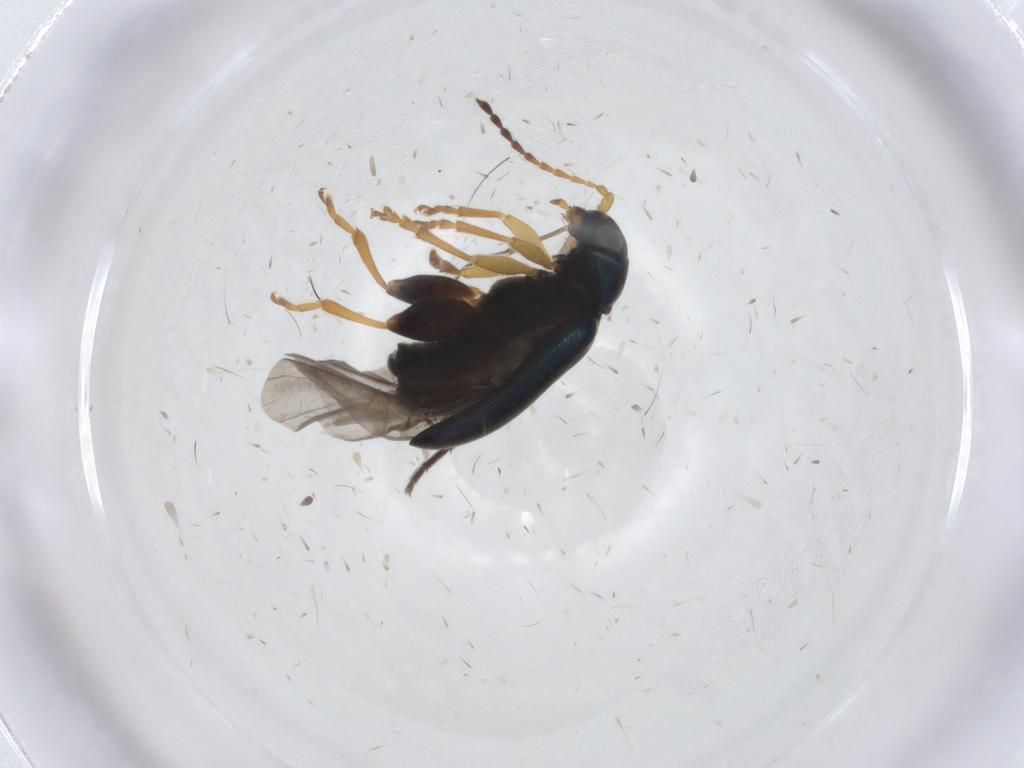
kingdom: Animalia
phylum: Arthropoda
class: Insecta
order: Coleoptera
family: Chrysomelidae
